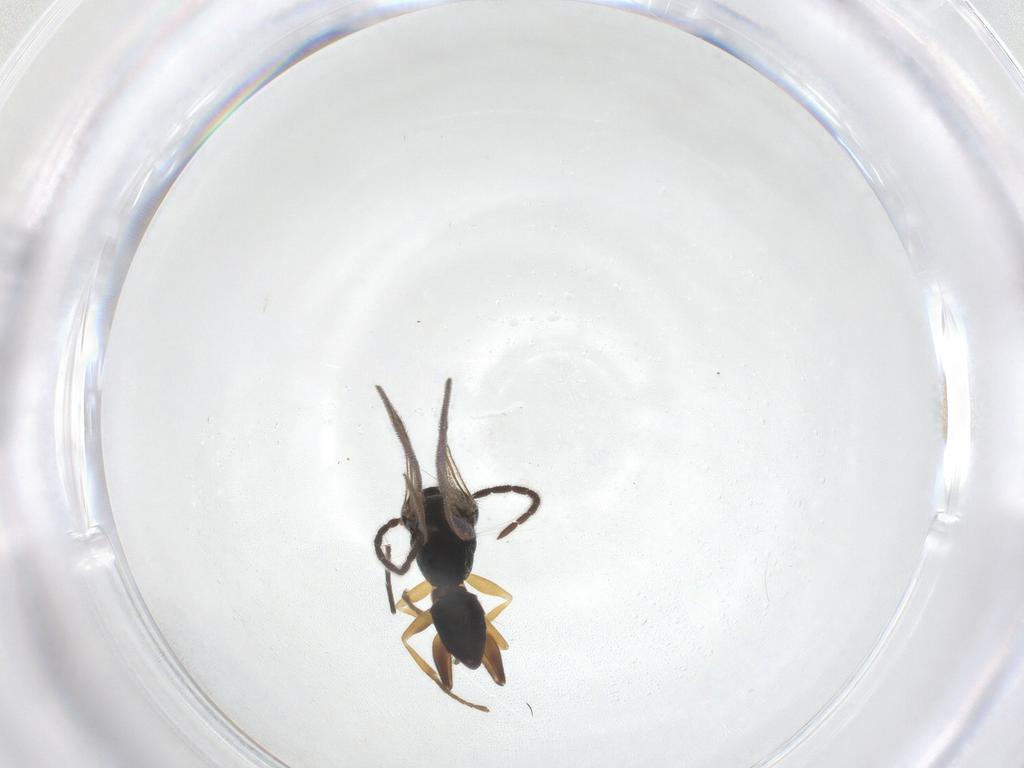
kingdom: Animalia
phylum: Arthropoda
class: Insecta
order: Hymenoptera
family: Dryinidae
